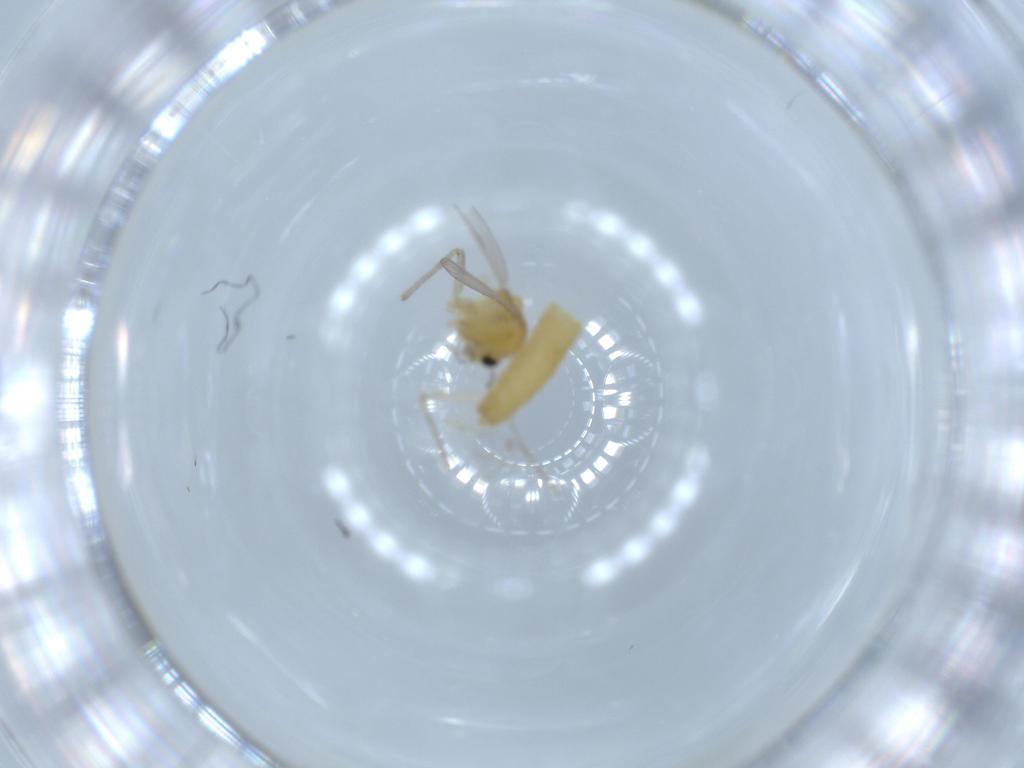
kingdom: Animalia
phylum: Arthropoda
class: Insecta
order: Diptera
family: Chironomidae
